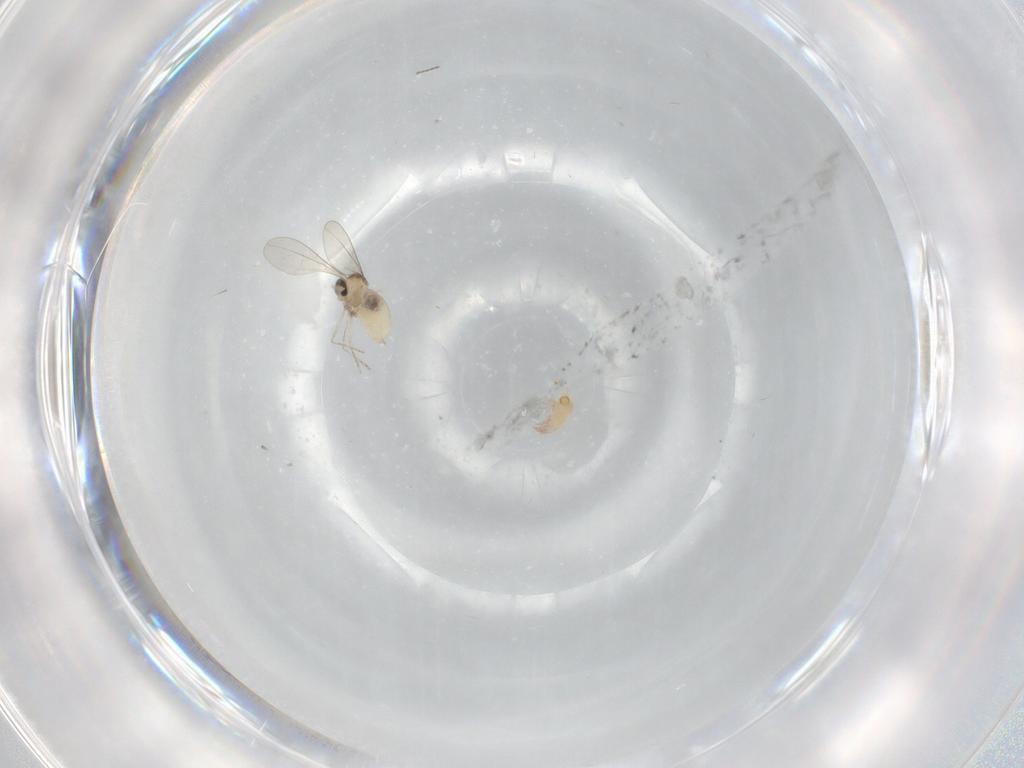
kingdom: Animalia
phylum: Arthropoda
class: Insecta
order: Diptera
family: Cecidomyiidae
